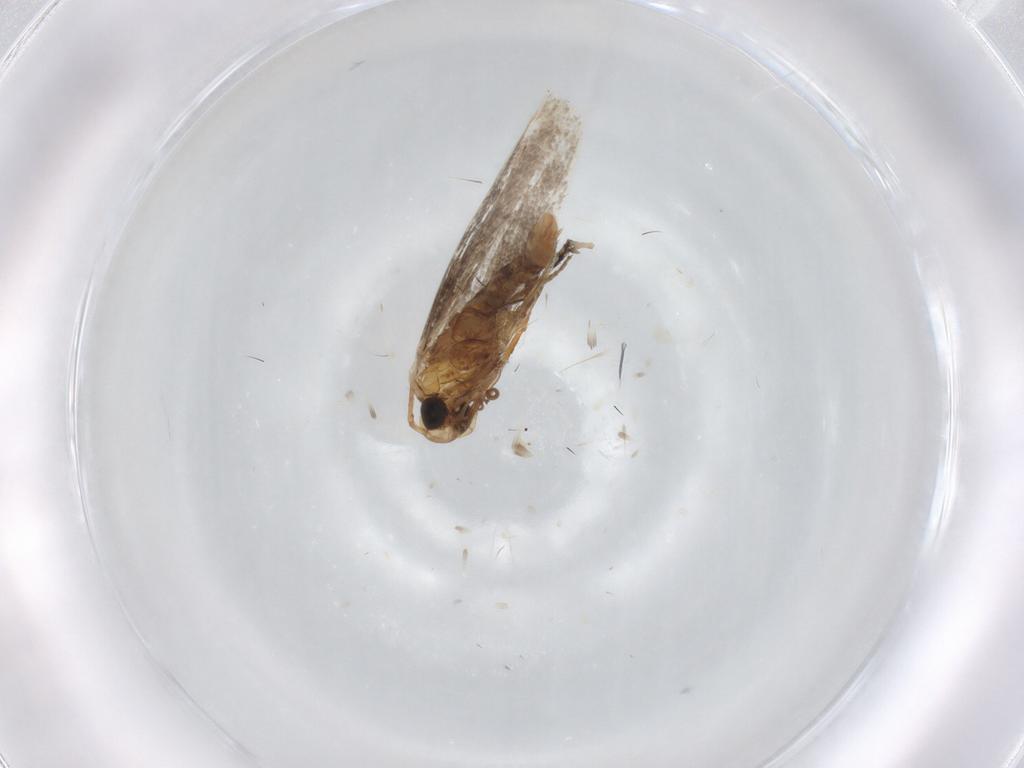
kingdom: Animalia
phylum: Arthropoda
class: Insecta
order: Lepidoptera
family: Gracillariidae
